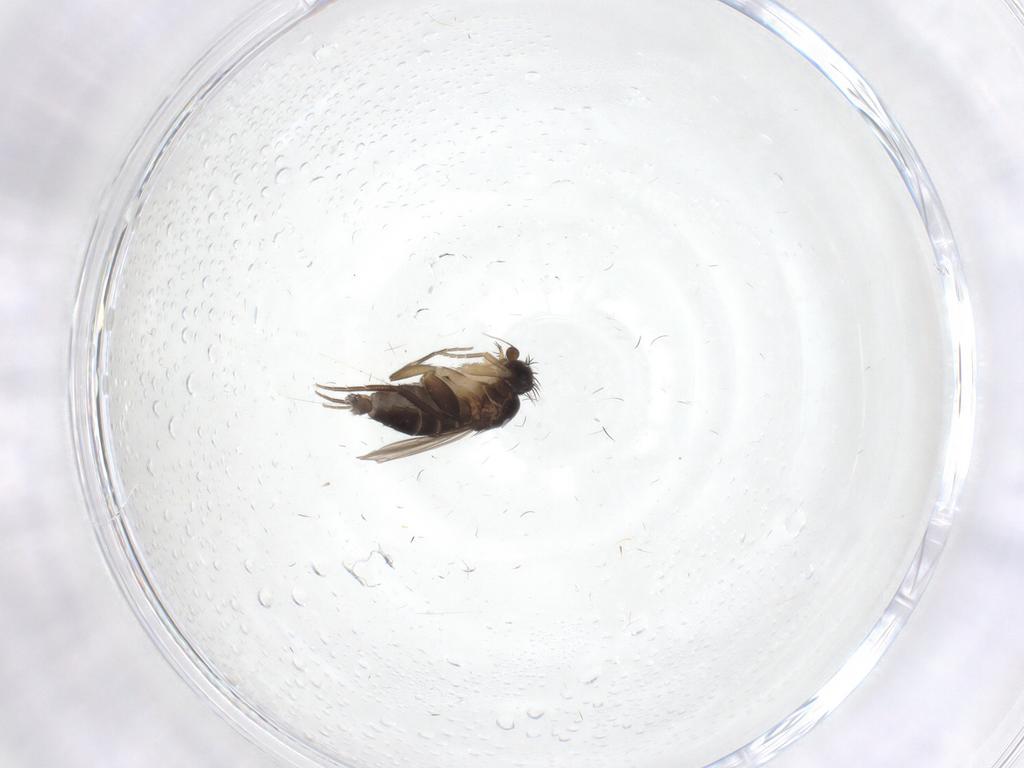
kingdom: Animalia
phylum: Arthropoda
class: Insecta
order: Diptera
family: Phoridae
